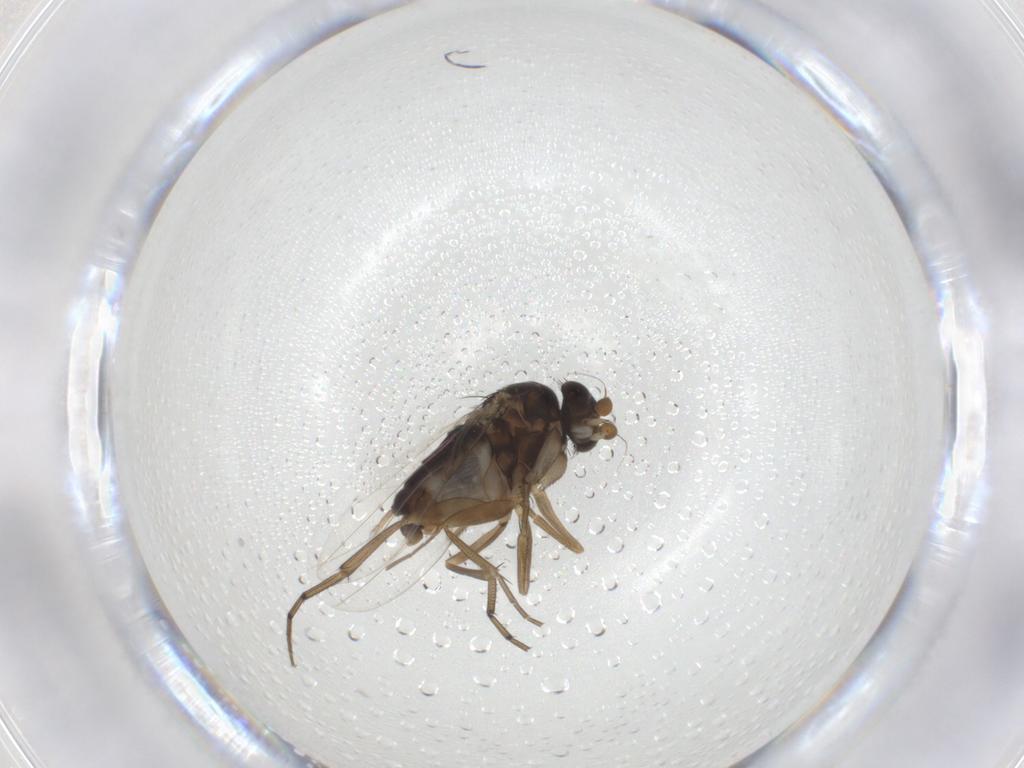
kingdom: Animalia
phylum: Arthropoda
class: Insecta
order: Diptera
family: Phoridae
